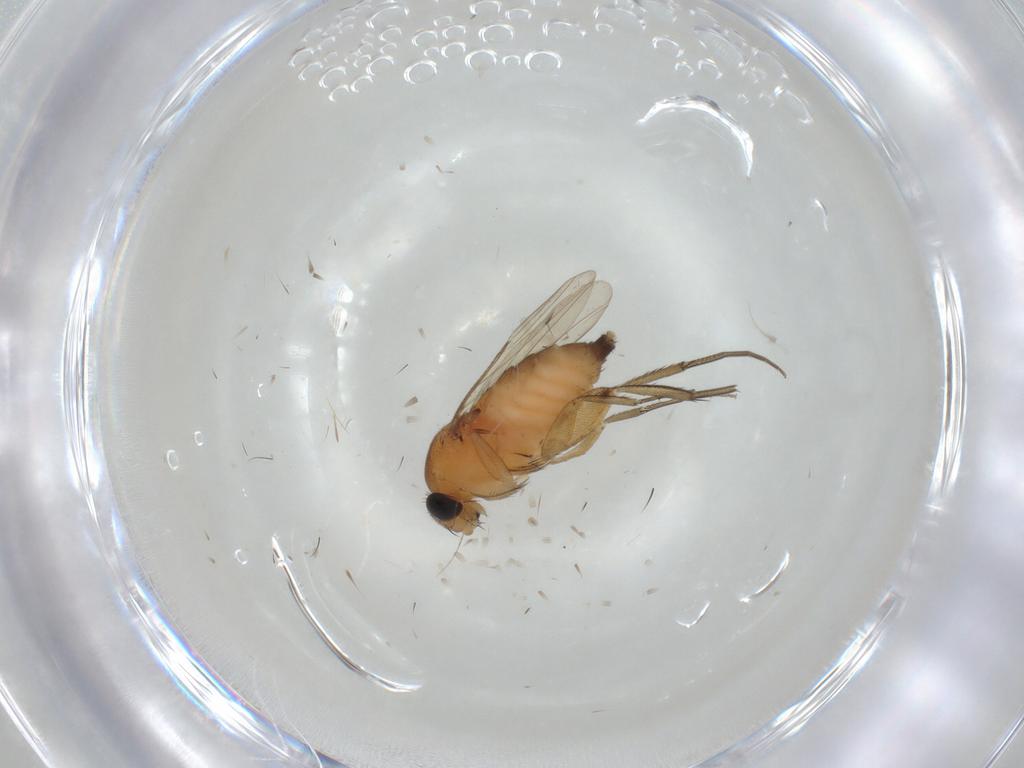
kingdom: Animalia
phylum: Arthropoda
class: Insecta
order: Diptera
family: Phoridae
